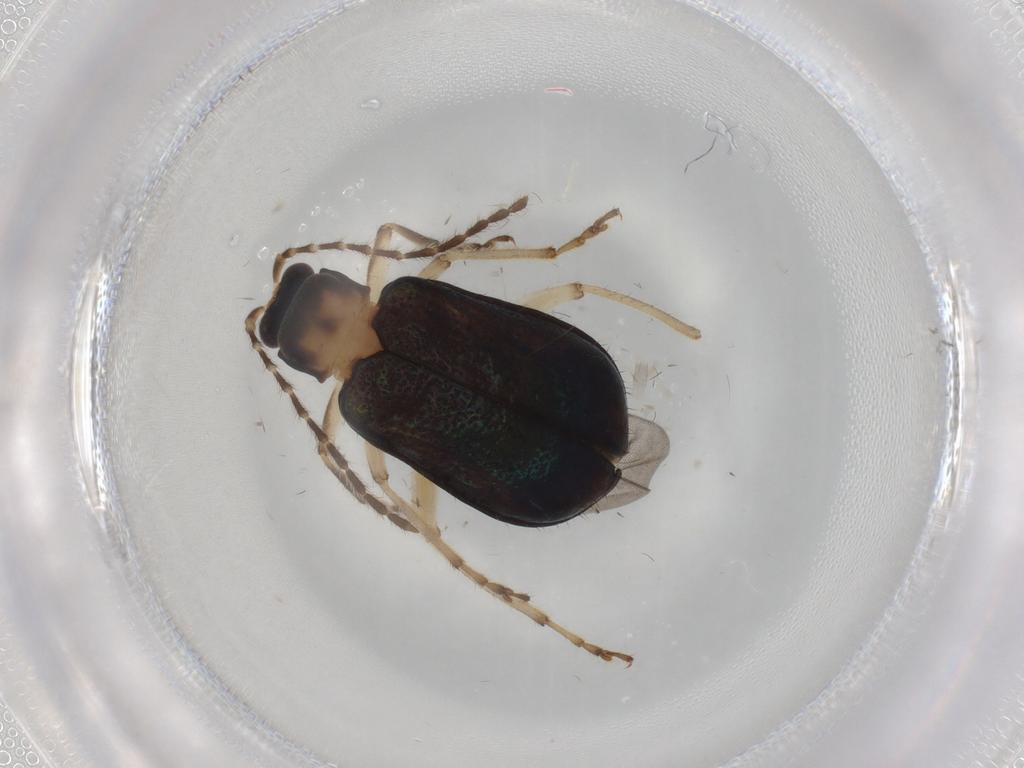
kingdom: Animalia
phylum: Arthropoda
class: Insecta
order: Coleoptera
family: Chrysomelidae
